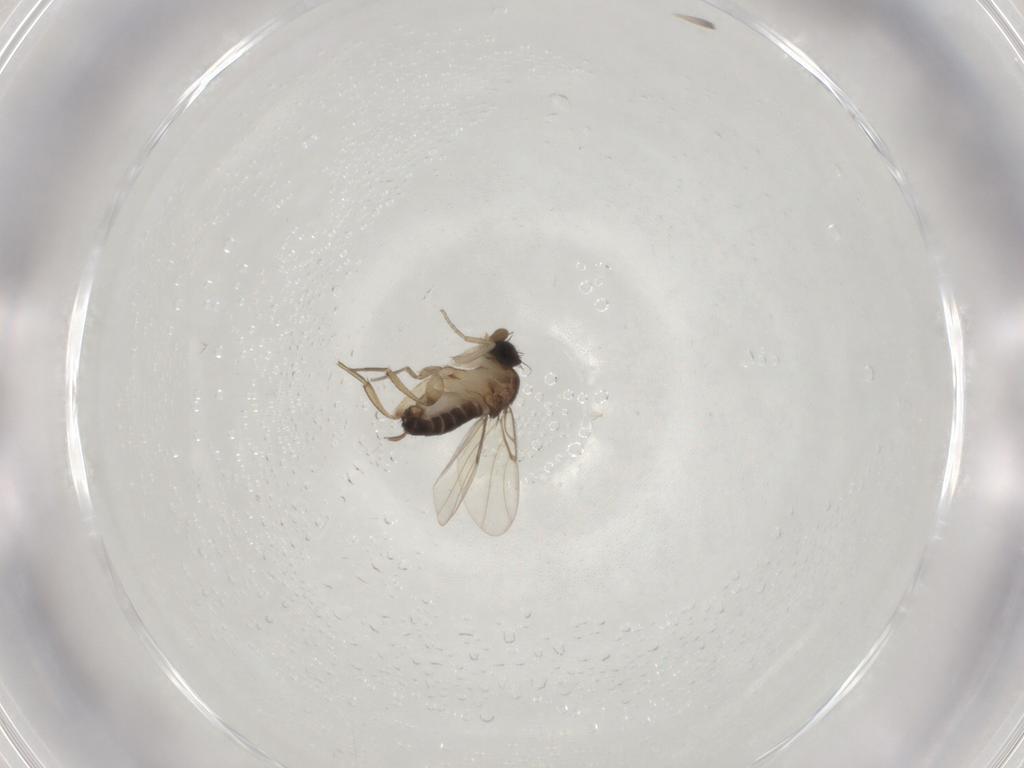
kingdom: Animalia
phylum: Arthropoda
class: Insecta
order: Diptera
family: Phoridae
